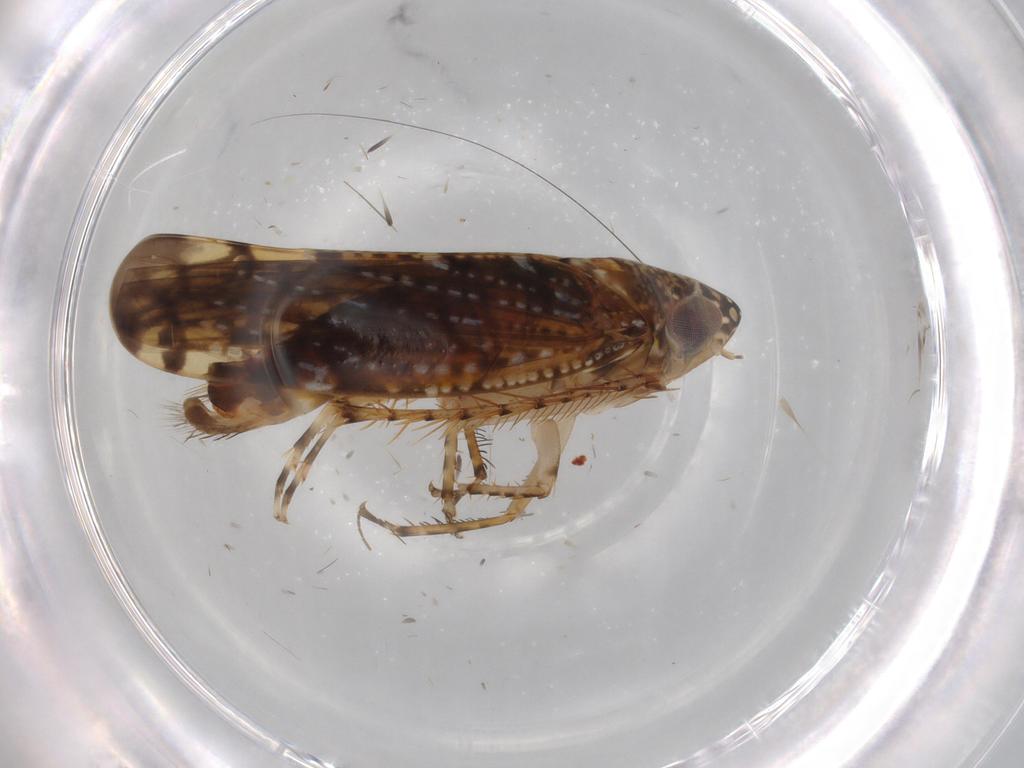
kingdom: Animalia
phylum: Arthropoda
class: Insecta
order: Hemiptera
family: Cicadellidae
